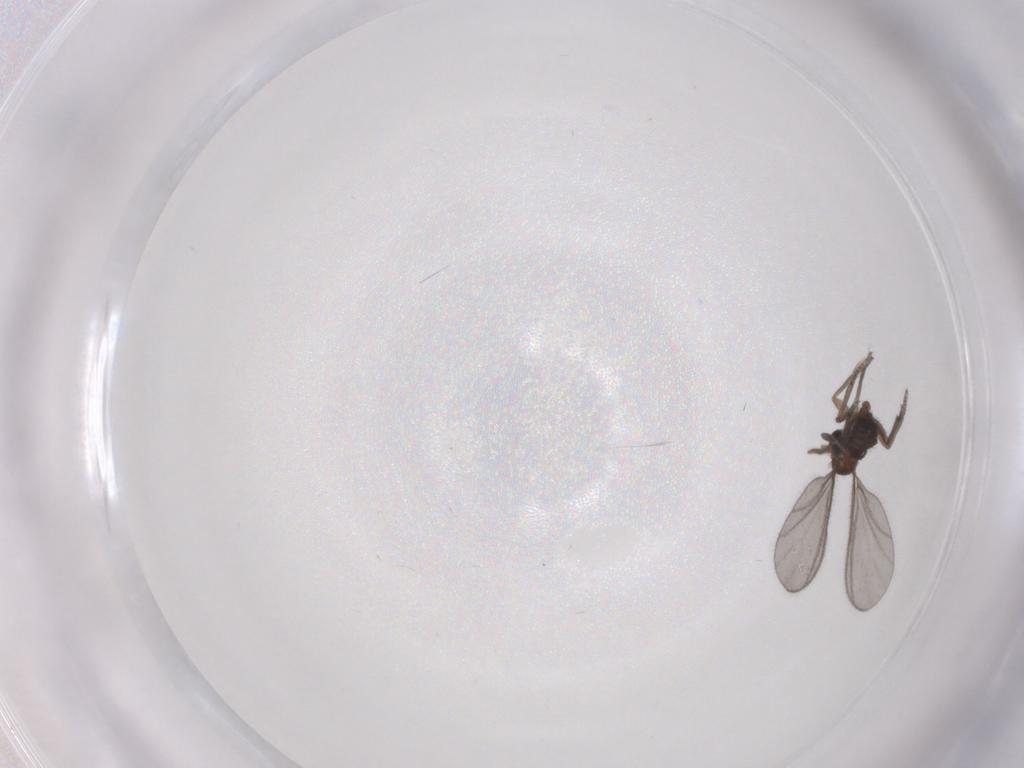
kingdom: Animalia
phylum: Arthropoda
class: Insecta
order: Diptera
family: Sciaridae
